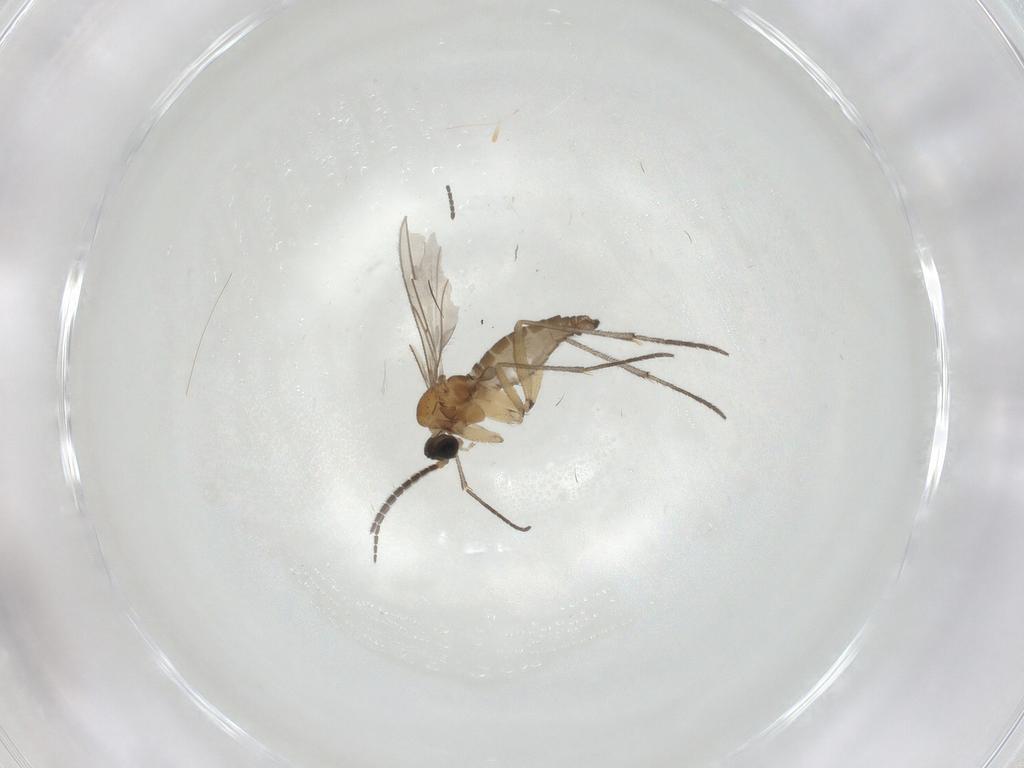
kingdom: Animalia
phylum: Arthropoda
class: Insecta
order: Diptera
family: Sciaridae
